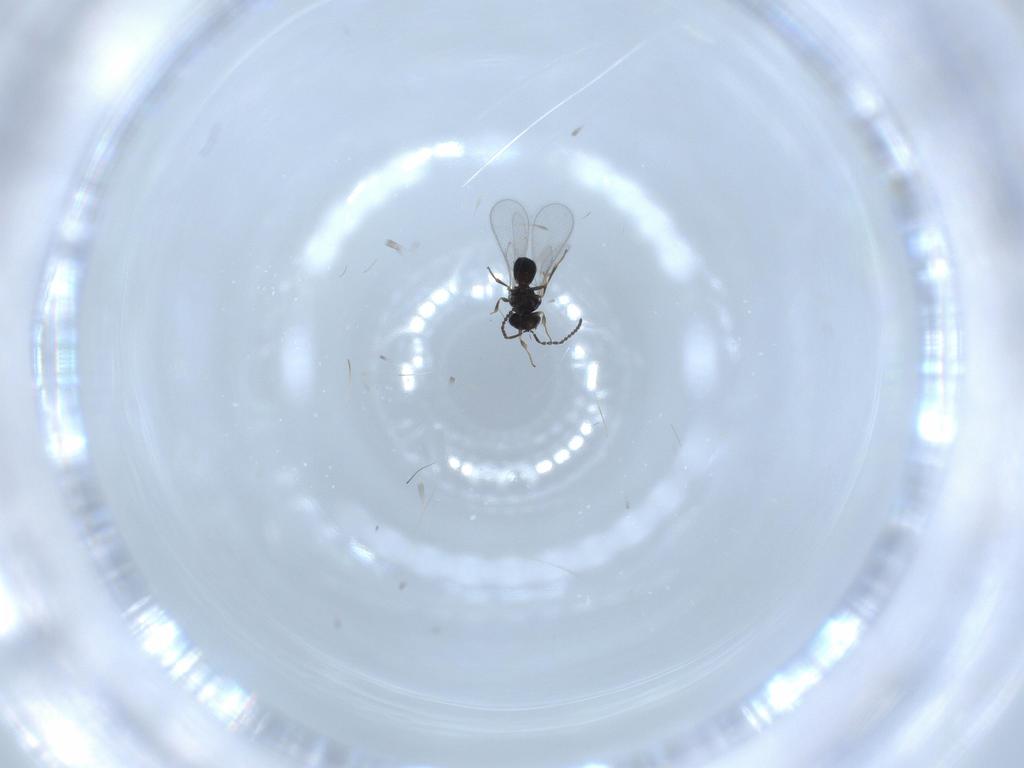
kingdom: Animalia
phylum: Arthropoda
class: Insecta
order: Hymenoptera
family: Scelionidae
